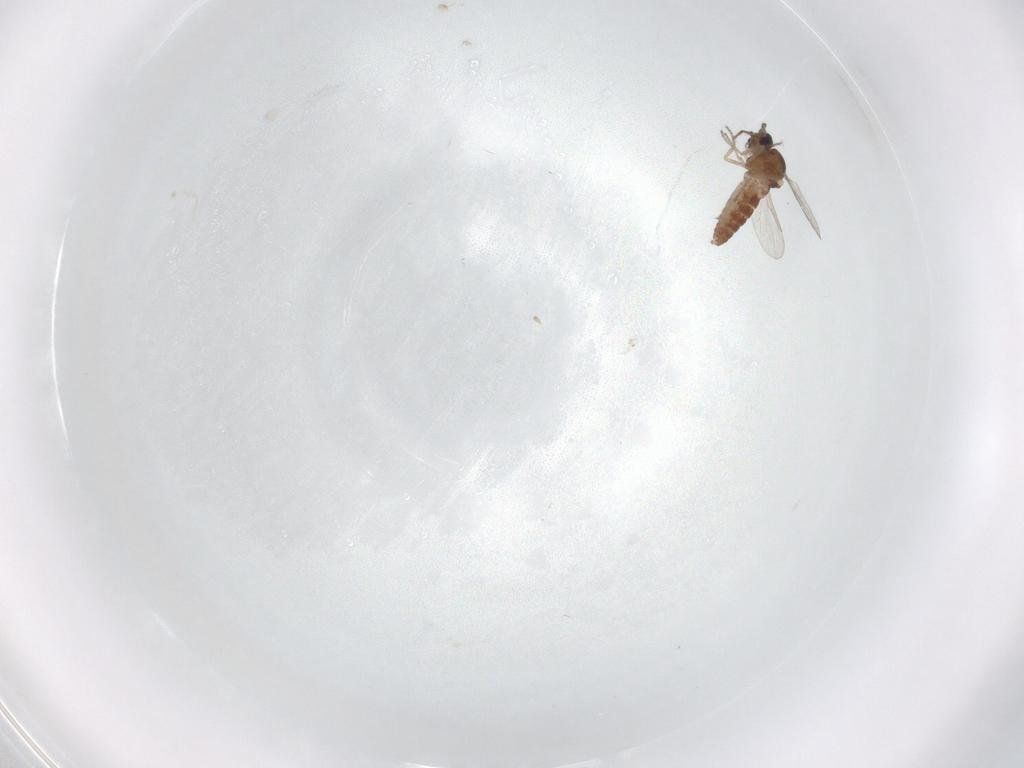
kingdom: Animalia
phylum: Arthropoda
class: Insecta
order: Diptera
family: Ceratopogonidae
